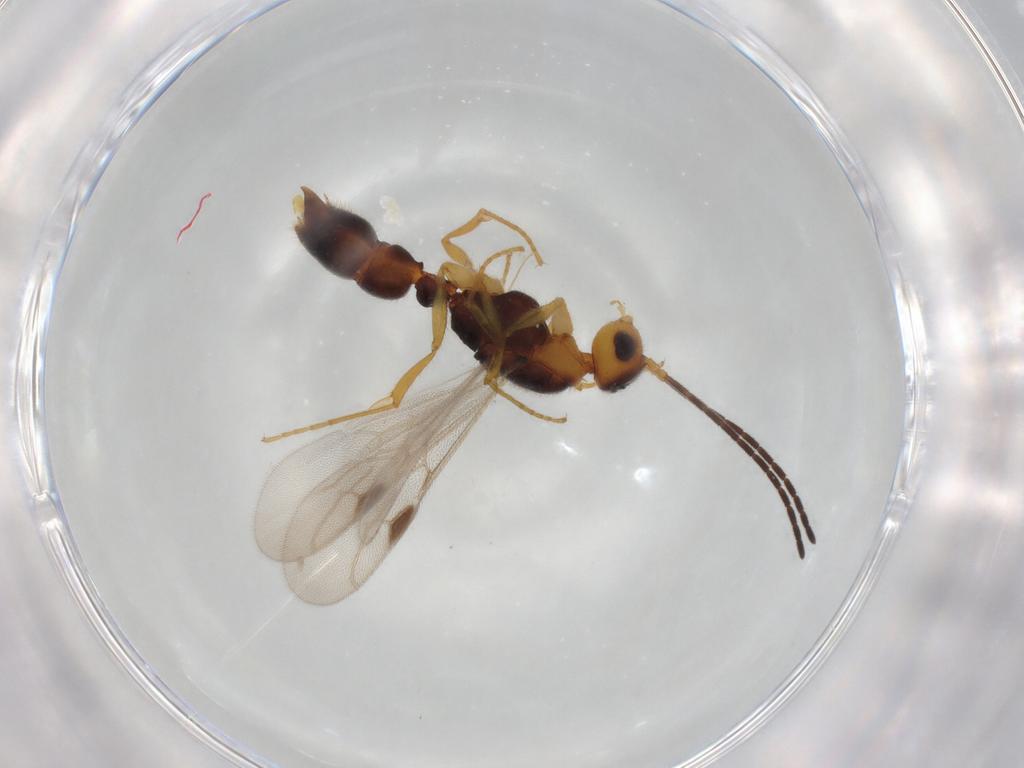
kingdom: Animalia
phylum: Arthropoda
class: Insecta
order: Hymenoptera
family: Formicidae
